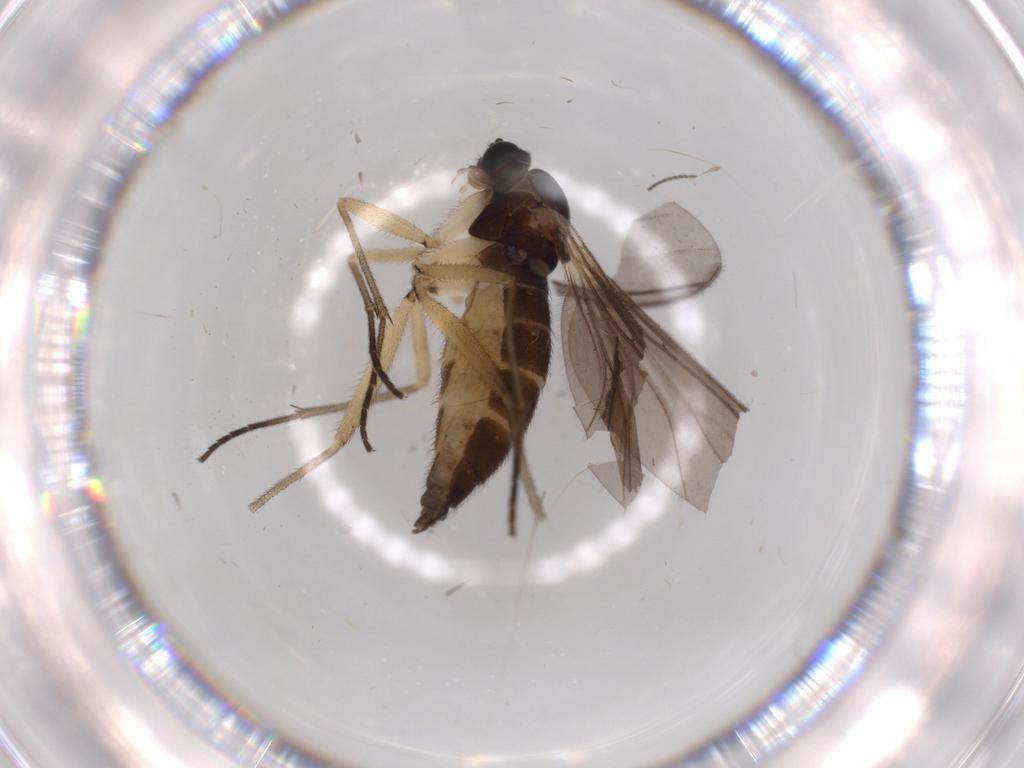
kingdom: Animalia
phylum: Arthropoda
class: Insecta
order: Diptera
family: Sciaridae
